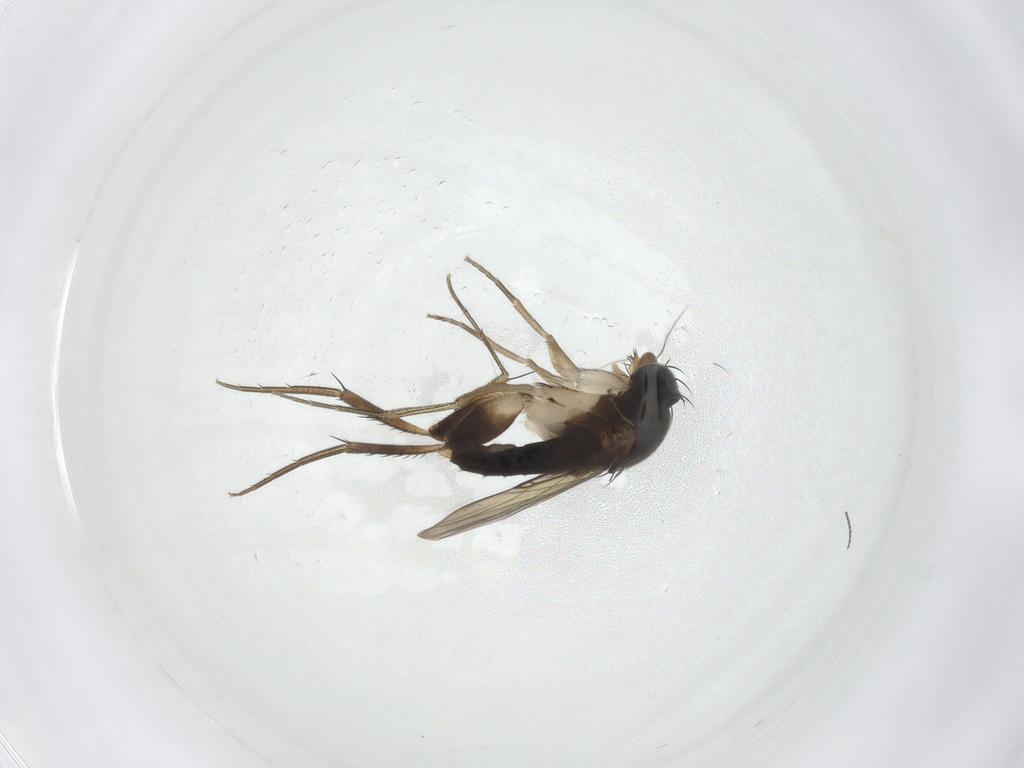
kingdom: Animalia
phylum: Arthropoda
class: Insecta
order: Diptera
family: Phoridae
